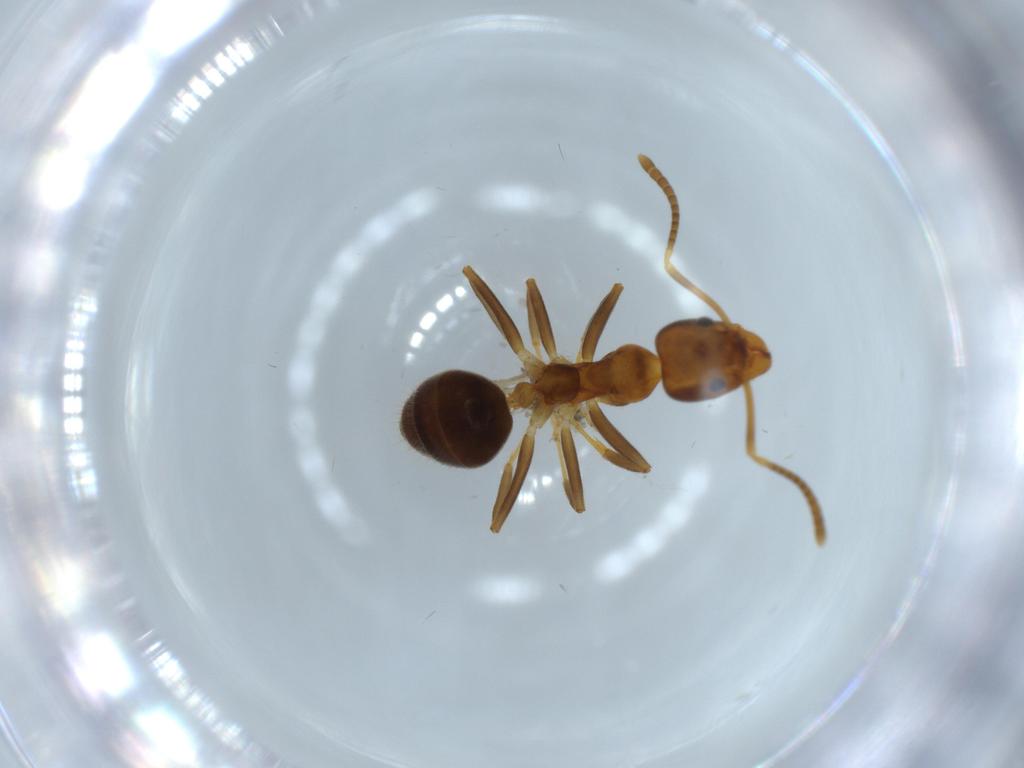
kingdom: Animalia
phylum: Arthropoda
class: Insecta
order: Hymenoptera
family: Formicidae
